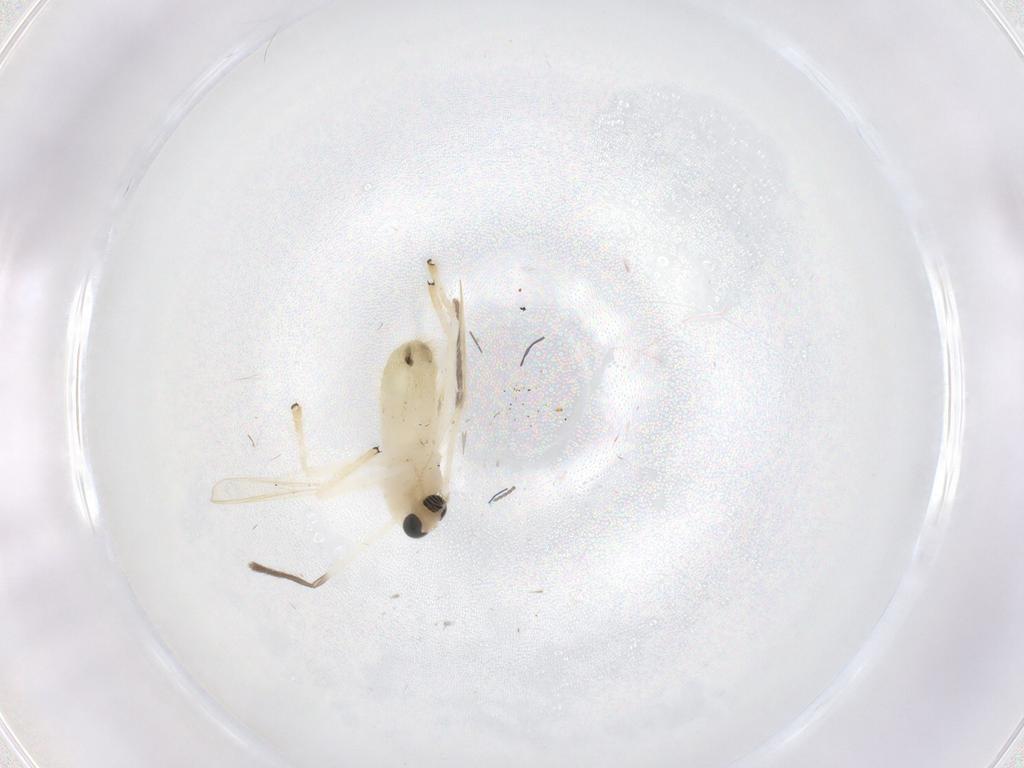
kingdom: Animalia
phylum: Arthropoda
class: Insecta
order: Diptera
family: Chironomidae
